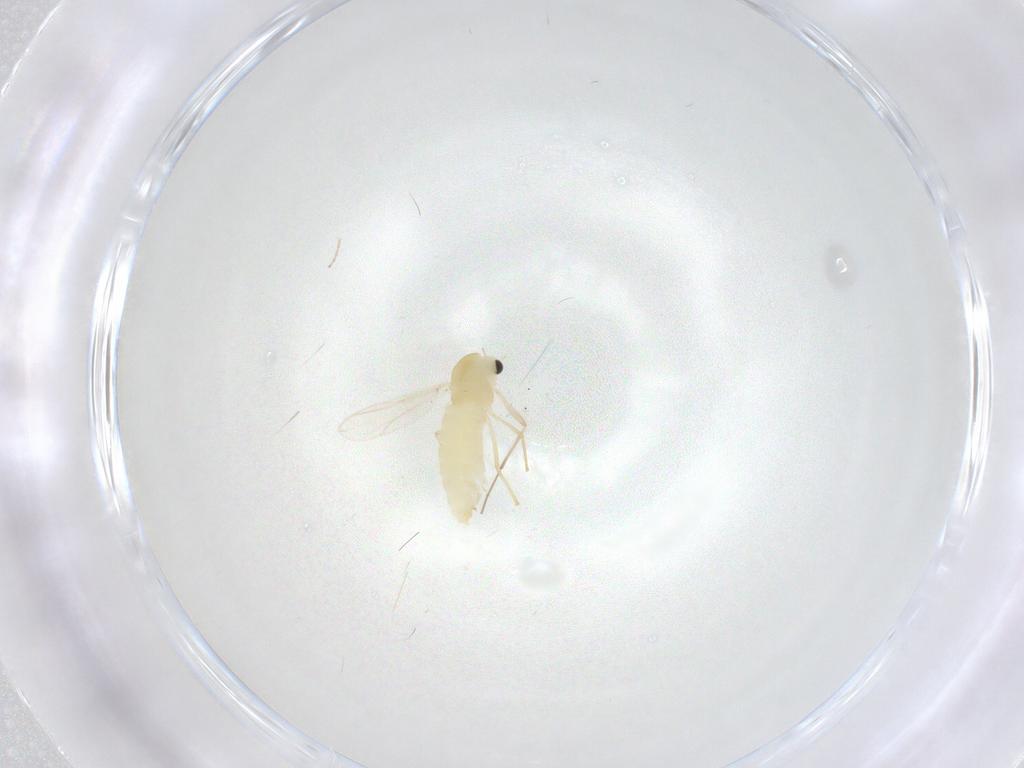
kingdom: Animalia
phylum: Arthropoda
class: Insecta
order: Diptera
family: Chironomidae
